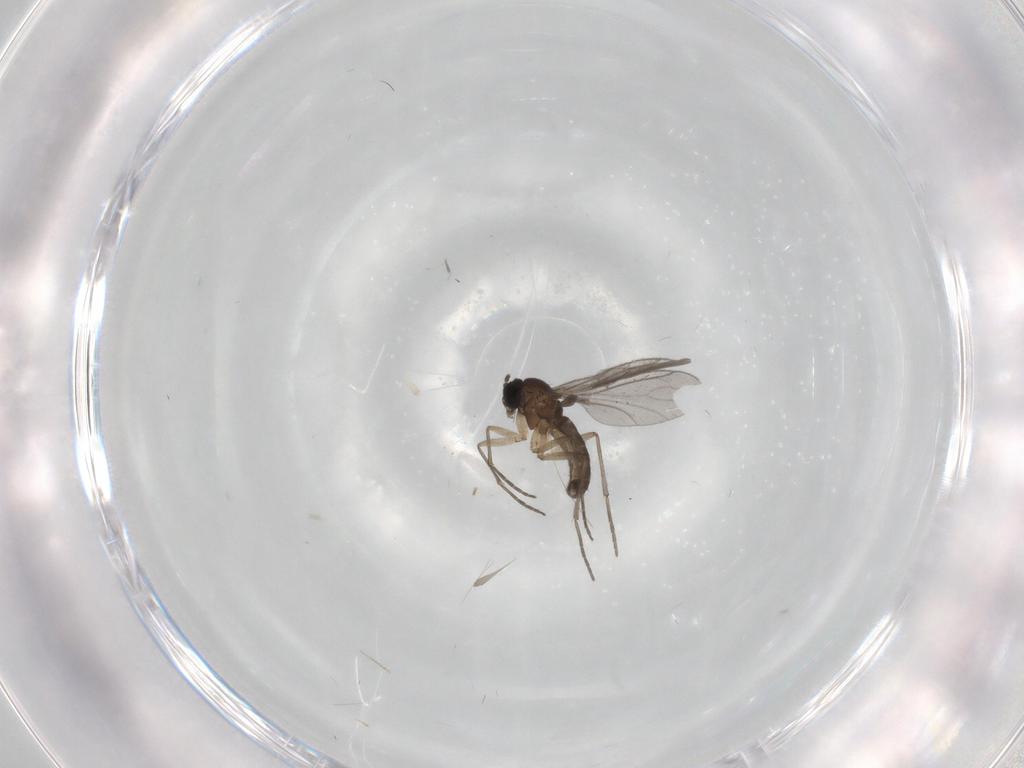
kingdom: Animalia
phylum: Arthropoda
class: Insecta
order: Diptera
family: Sciaridae
